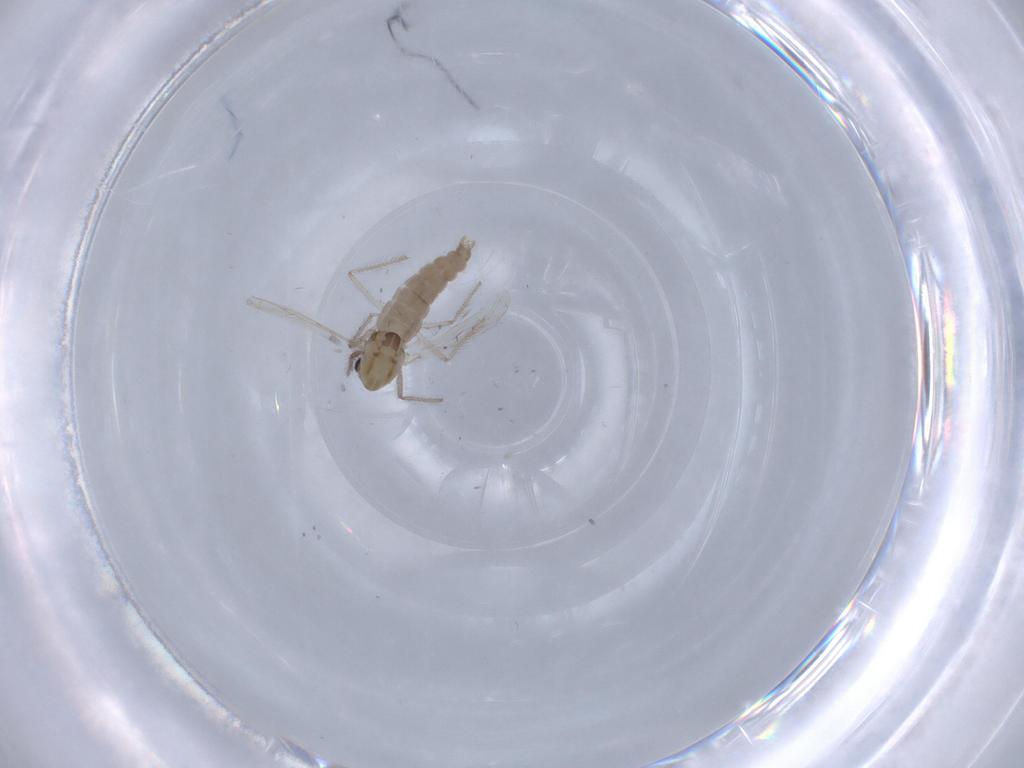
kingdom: Animalia
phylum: Arthropoda
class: Insecta
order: Diptera
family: Chironomidae
